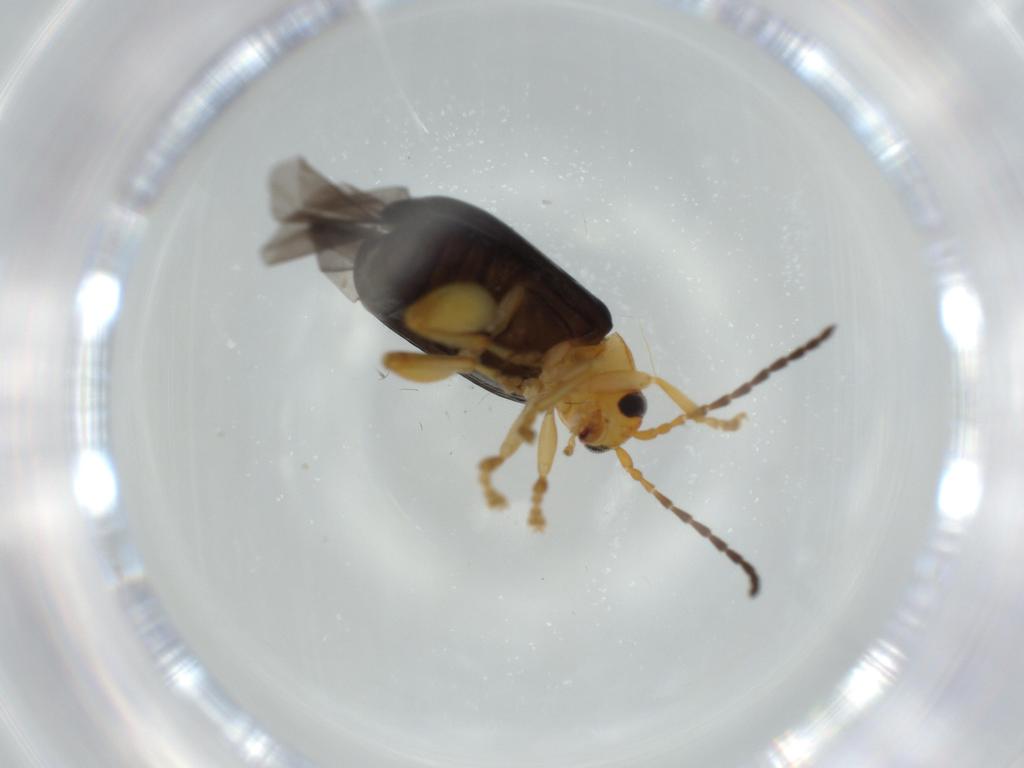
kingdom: Animalia
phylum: Arthropoda
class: Insecta
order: Coleoptera
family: Chrysomelidae
